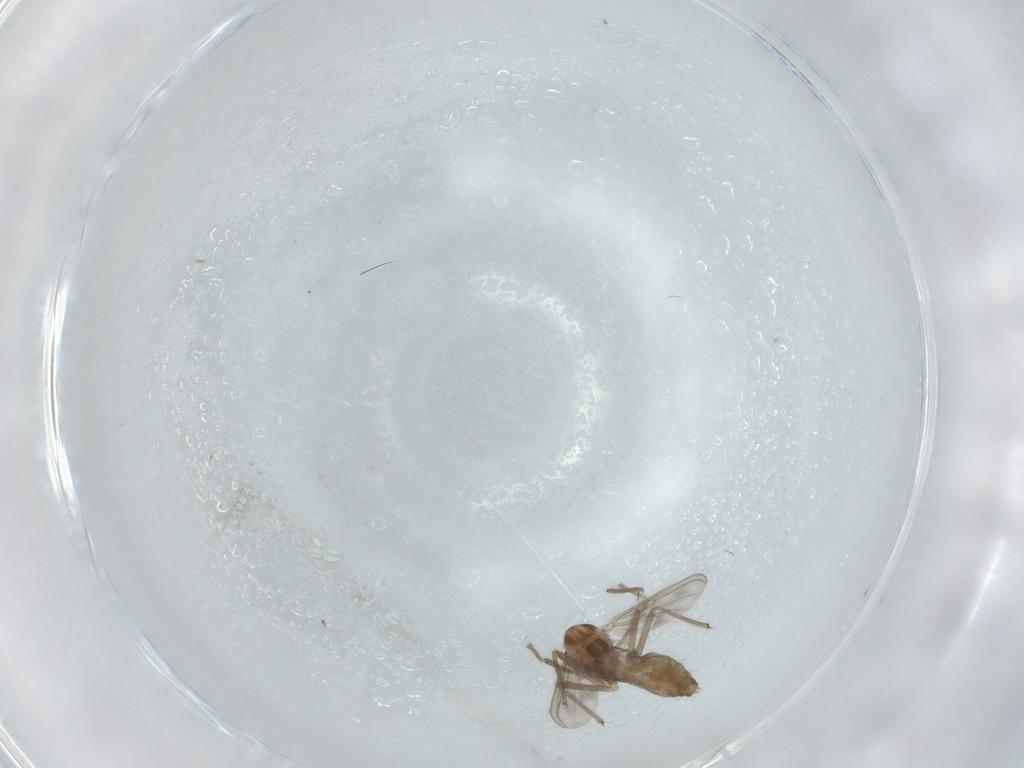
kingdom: Animalia
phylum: Arthropoda
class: Insecta
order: Diptera
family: Chironomidae
